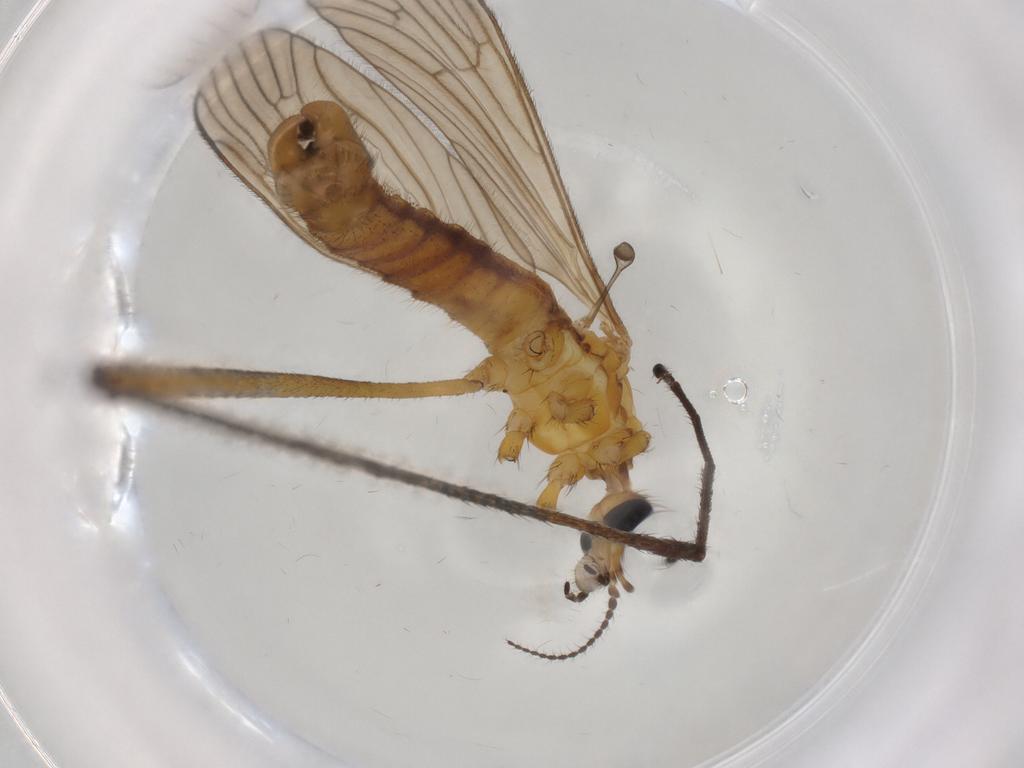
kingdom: Animalia
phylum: Arthropoda
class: Insecta
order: Diptera
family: Limoniidae
